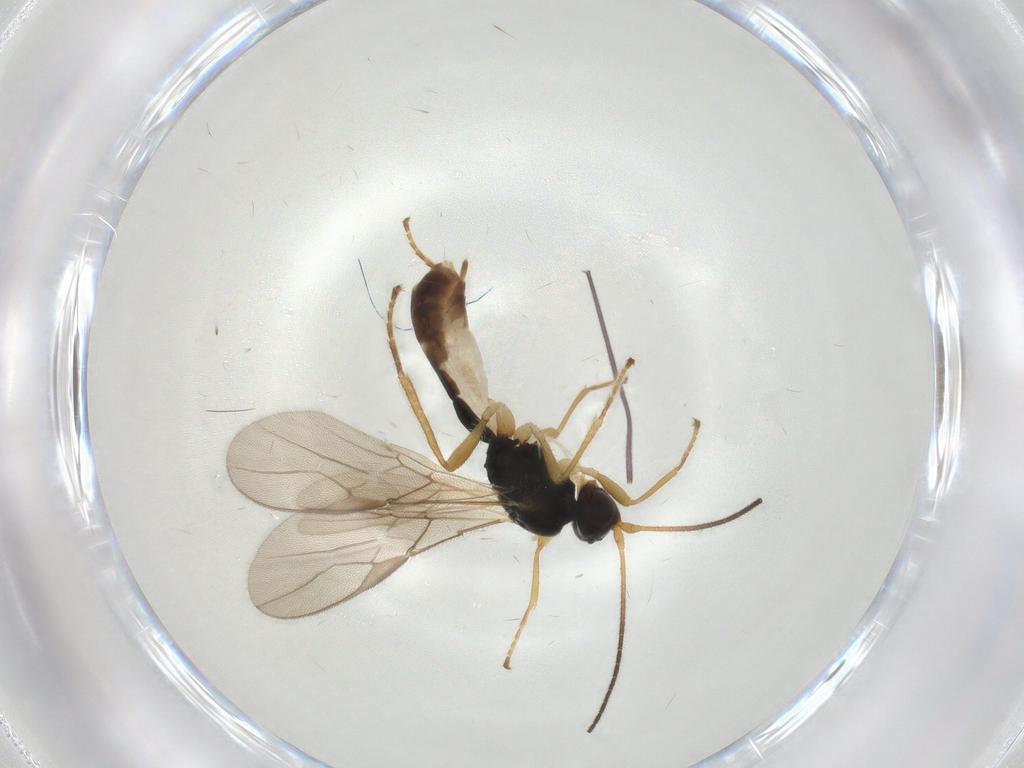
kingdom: Animalia
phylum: Arthropoda
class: Insecta
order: Hymenoptera
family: Braconidae
